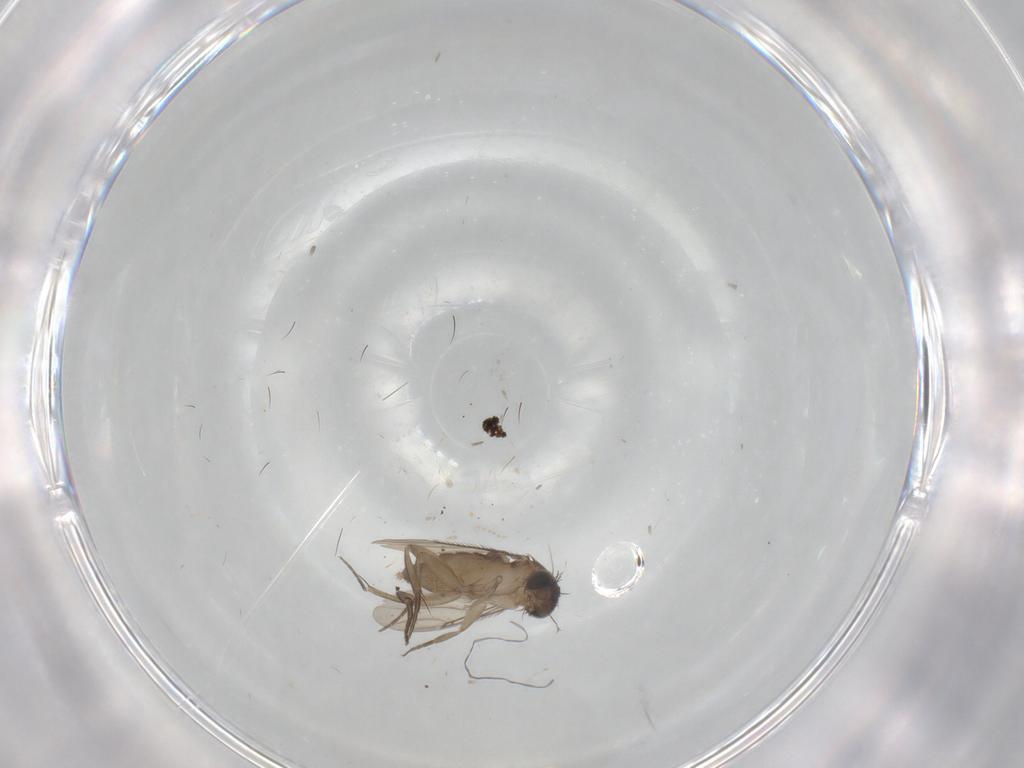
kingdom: Animalia
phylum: Arthropoda
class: Insecta
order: Diptera
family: Phoridae
